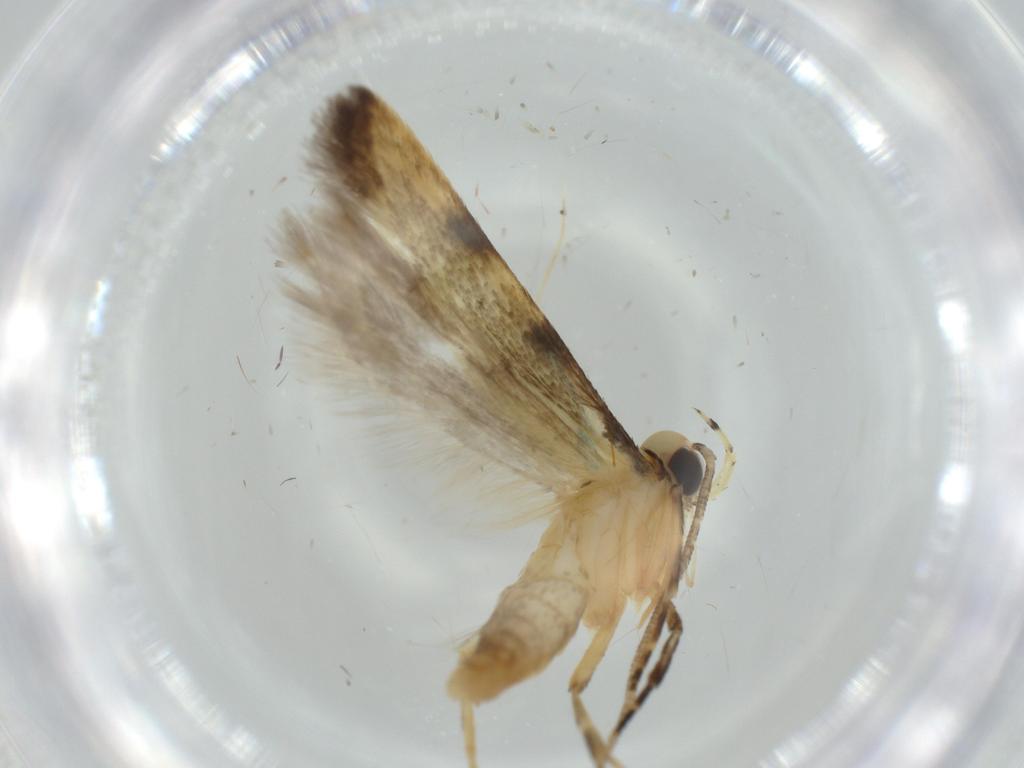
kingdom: Animalia
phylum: Arthropoda
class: Insecta
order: Lepidoptera
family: Autostichidae
